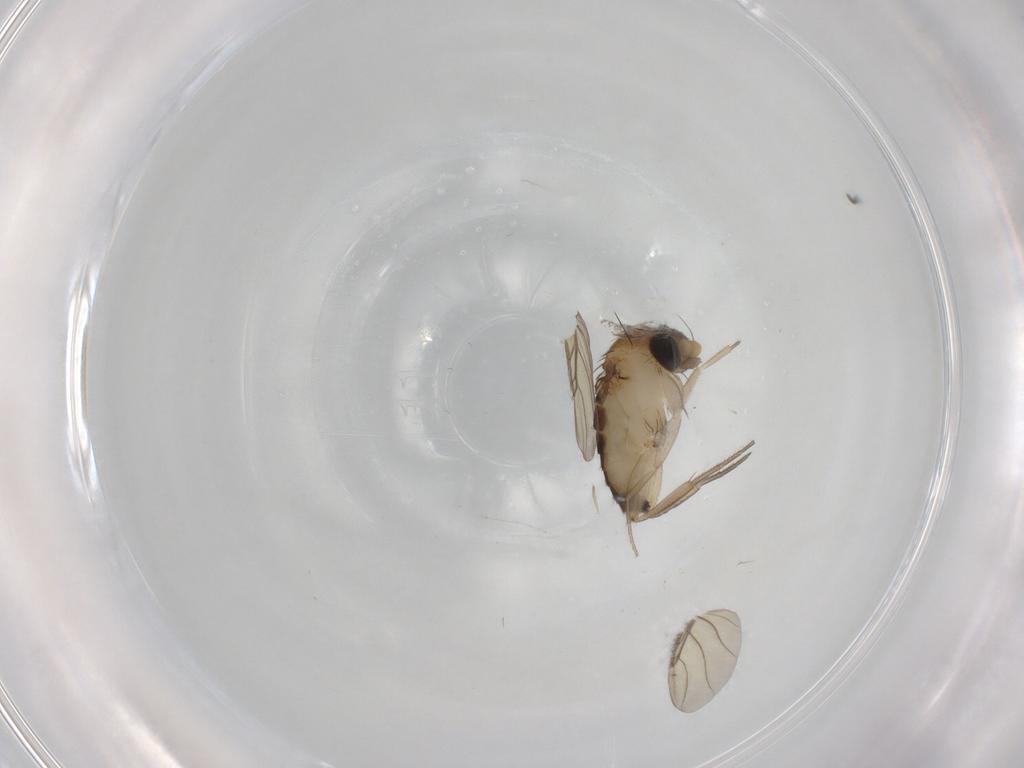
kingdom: Animalia
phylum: Arthropoda
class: Insecta
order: Diptera
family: Phoridae
